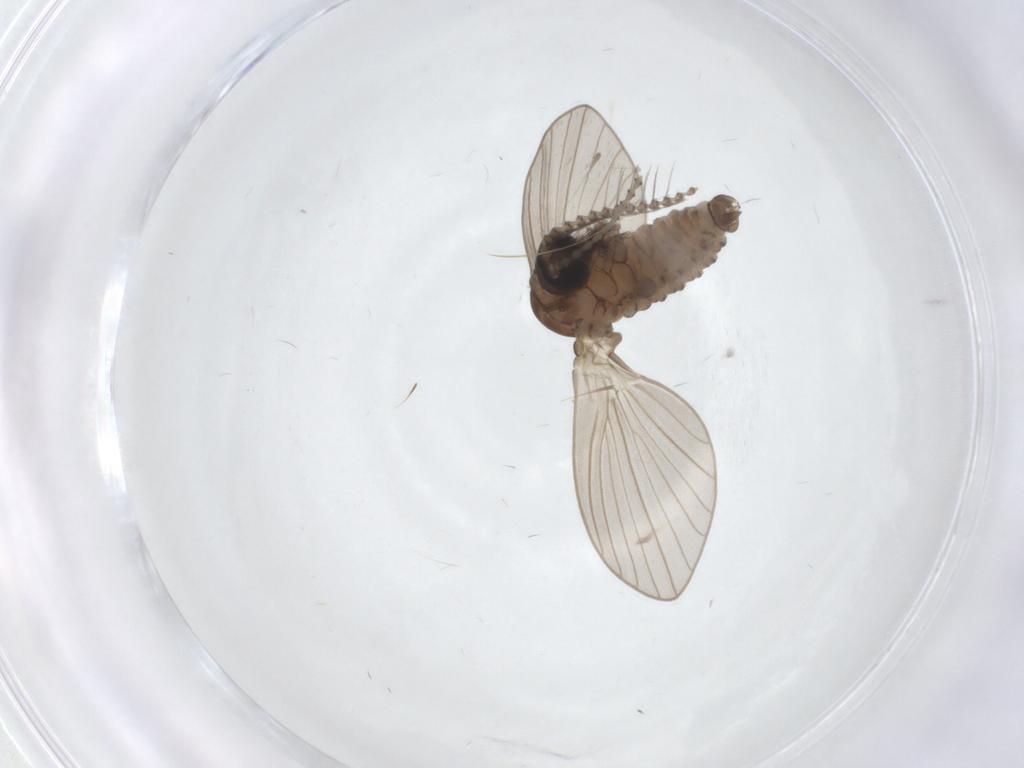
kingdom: Animalia
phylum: Arthropoda
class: Insecta
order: Diptera
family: Psychodidae
